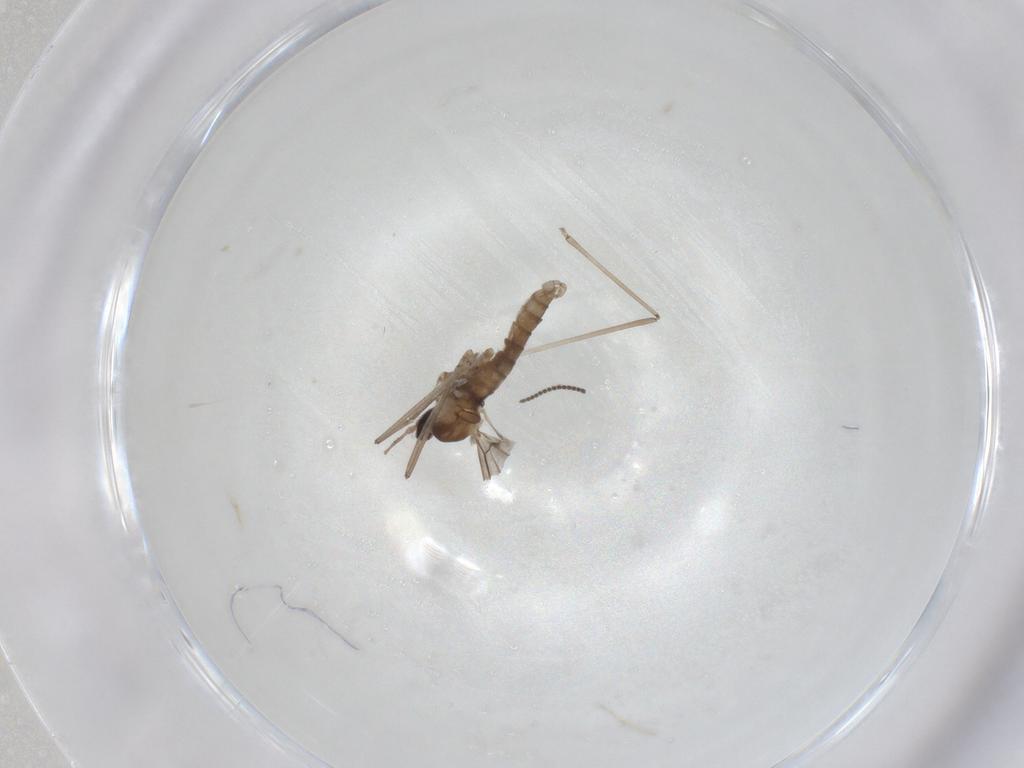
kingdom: Animalia
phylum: Arthropoda
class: Insecta
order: Diptera
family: Cecidomyiidae
